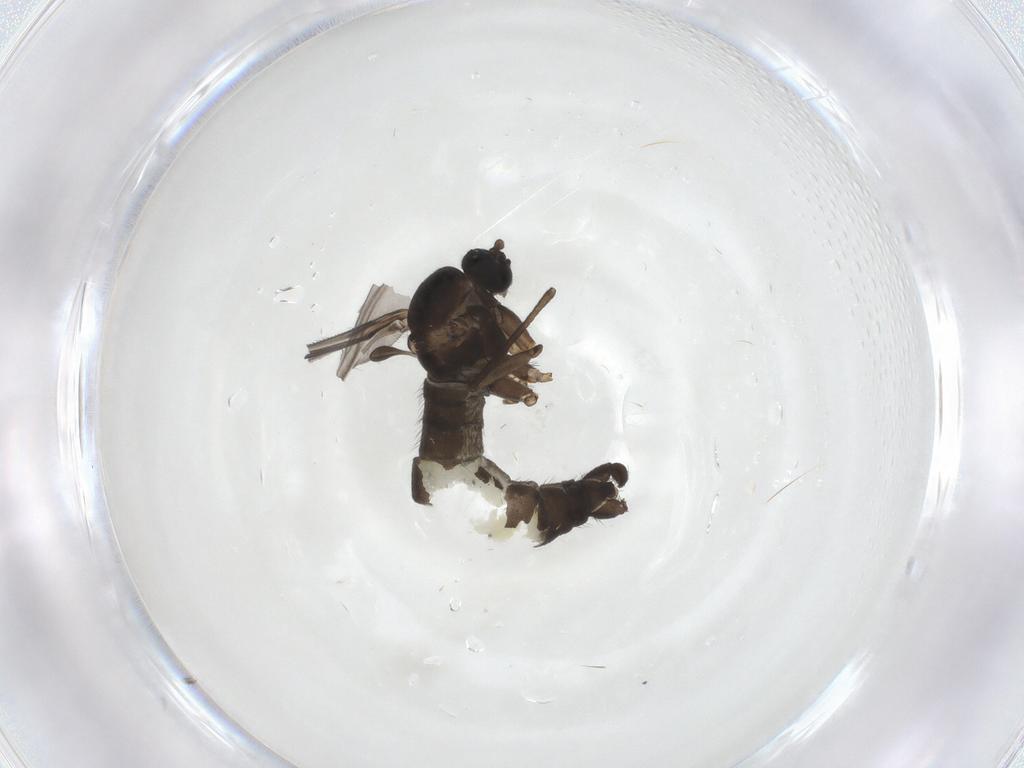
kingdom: Animalia
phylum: Arthropoda
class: Insecta
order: Diptera
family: Sciaridae
